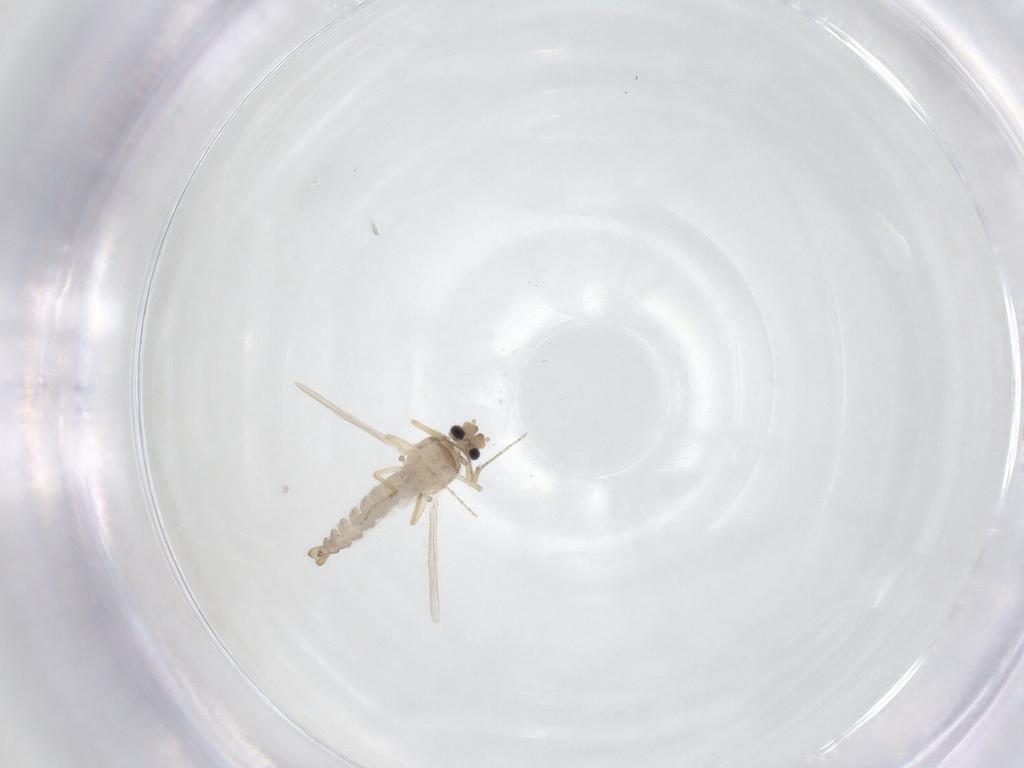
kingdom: Animalia
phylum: Arthropoda
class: Insecta
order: Diptera
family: Ceratopogonidae
